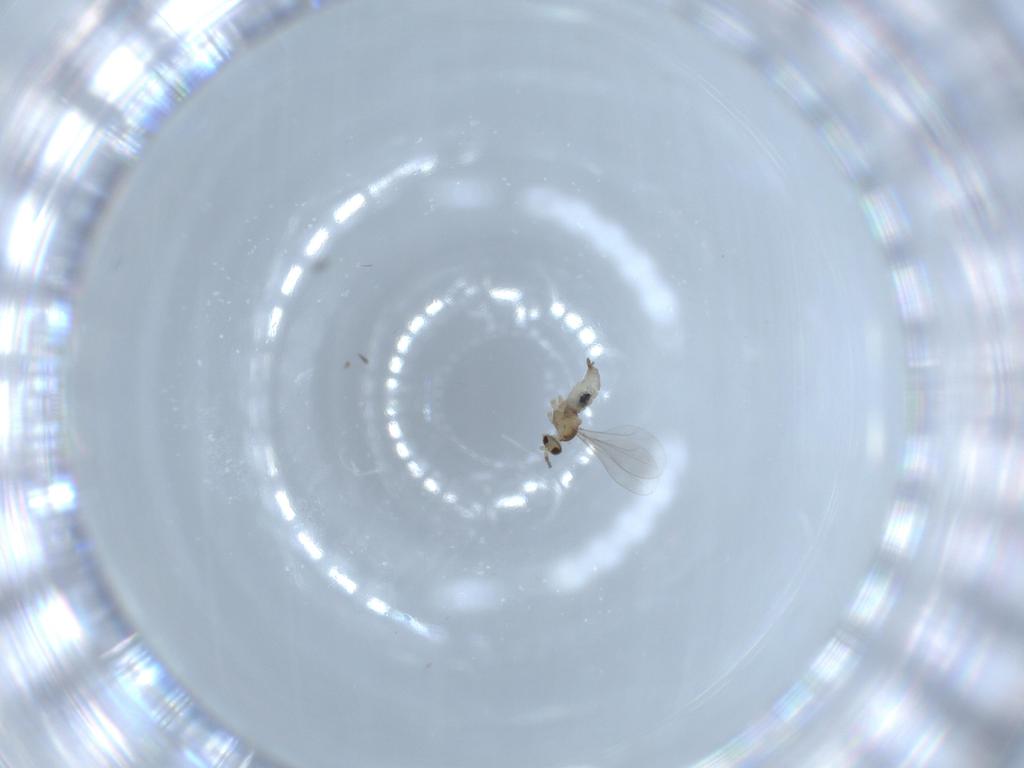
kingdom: Animalia
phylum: Arthropoda
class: Insecta
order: Diptera
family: Cecidomyiidae
